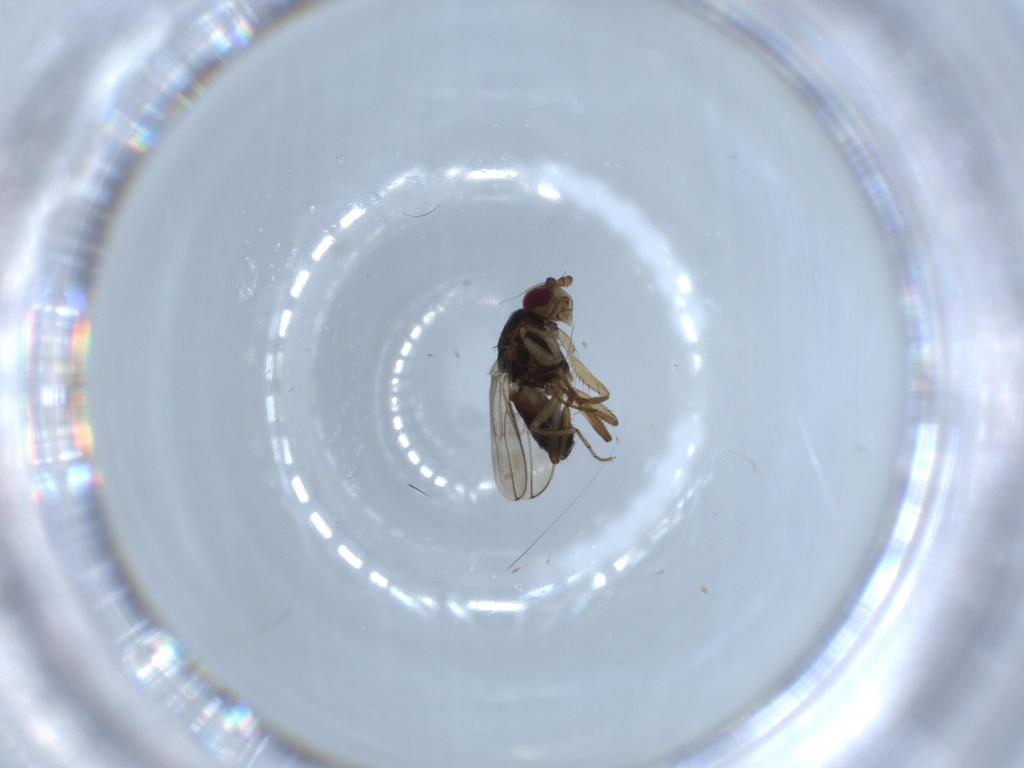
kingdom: Animalia
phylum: Arthropoda
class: Insecta
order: Diptera
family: Sphaeroceridae
